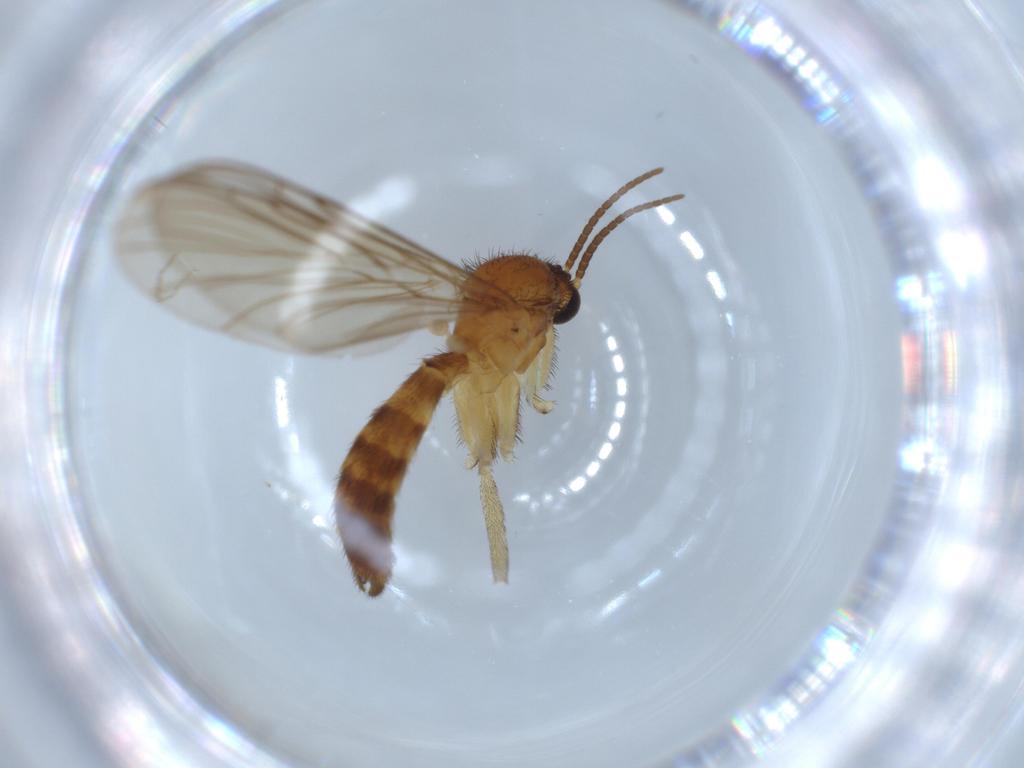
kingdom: Animalia
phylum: Arthropoda
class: Insecta
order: Diptera
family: Keroplatidae
